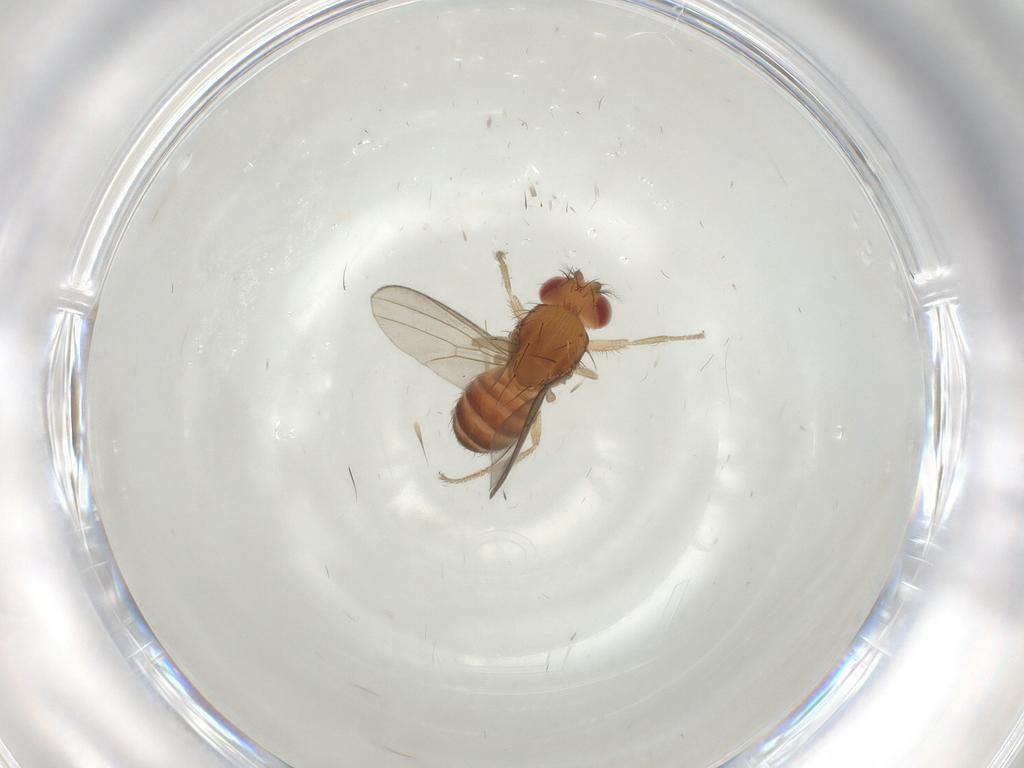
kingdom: Animalia
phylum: Arthropoda
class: Insecta
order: Diptera
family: Drosophilidae
